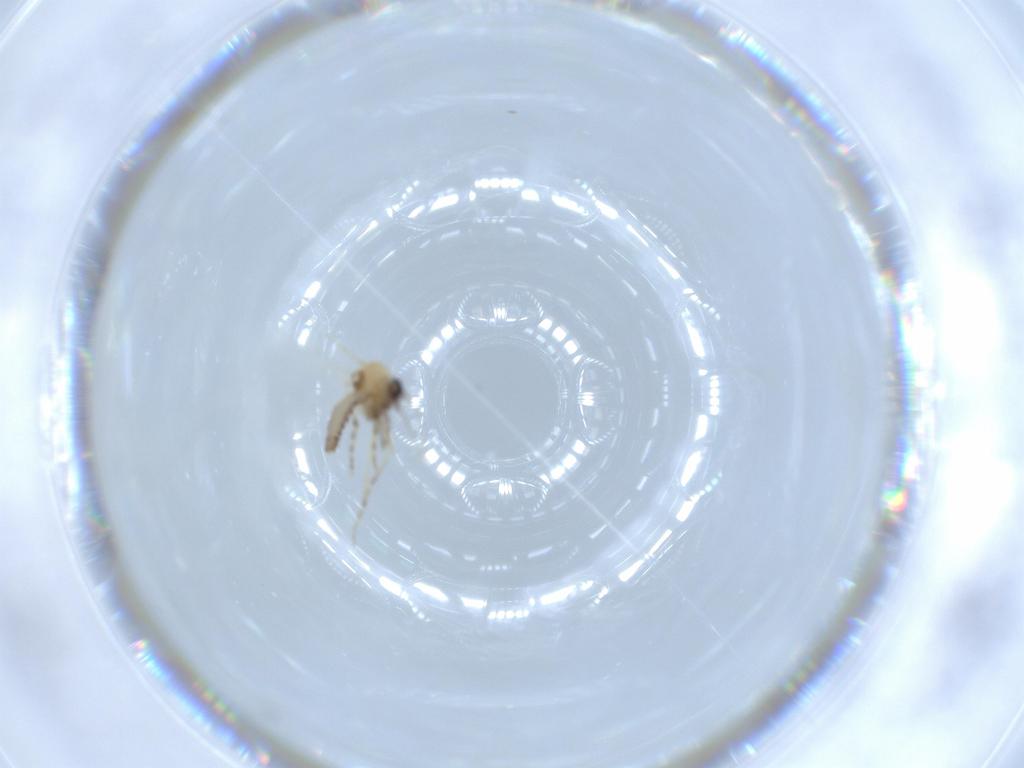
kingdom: Animalia
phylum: Arthropoda
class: Insecta
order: Diptera
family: Ceratopogonidae
